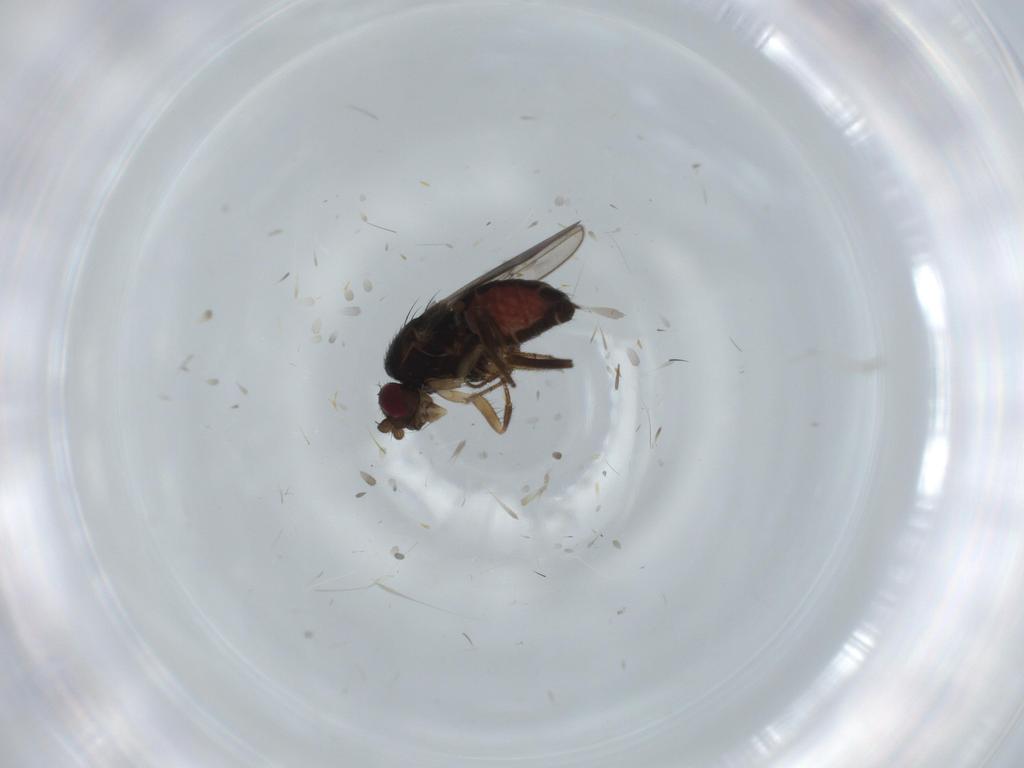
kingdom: Animalia
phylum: Arthropoda
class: Insecta
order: Diptera
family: Sphaeroceridae
